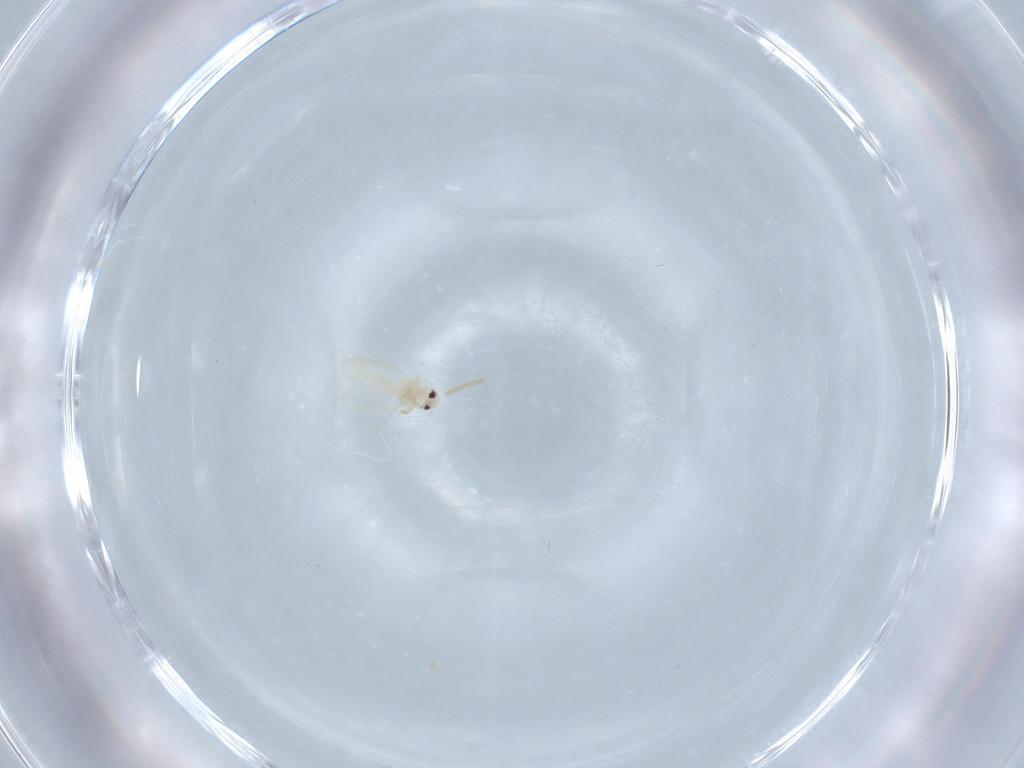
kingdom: Animalia
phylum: Arthropoda
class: Insecta
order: Hemiptera
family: Aleyrodidae
